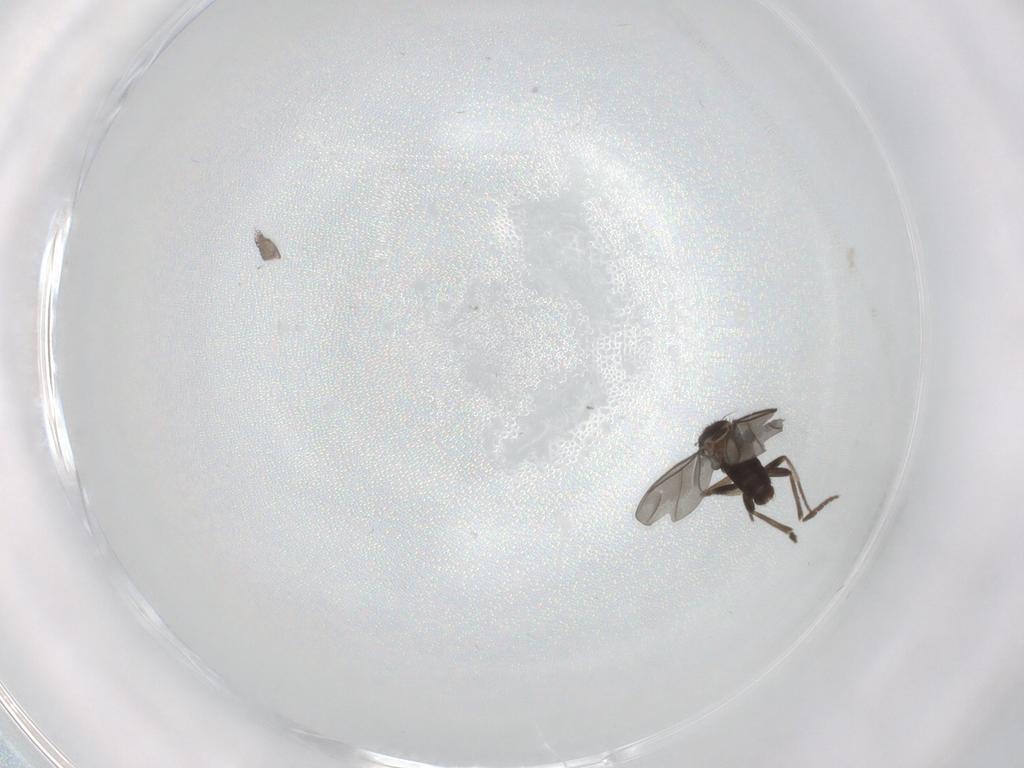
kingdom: Animalia
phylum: Arthropoda
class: Insecta
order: Diptera
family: Phoridae
